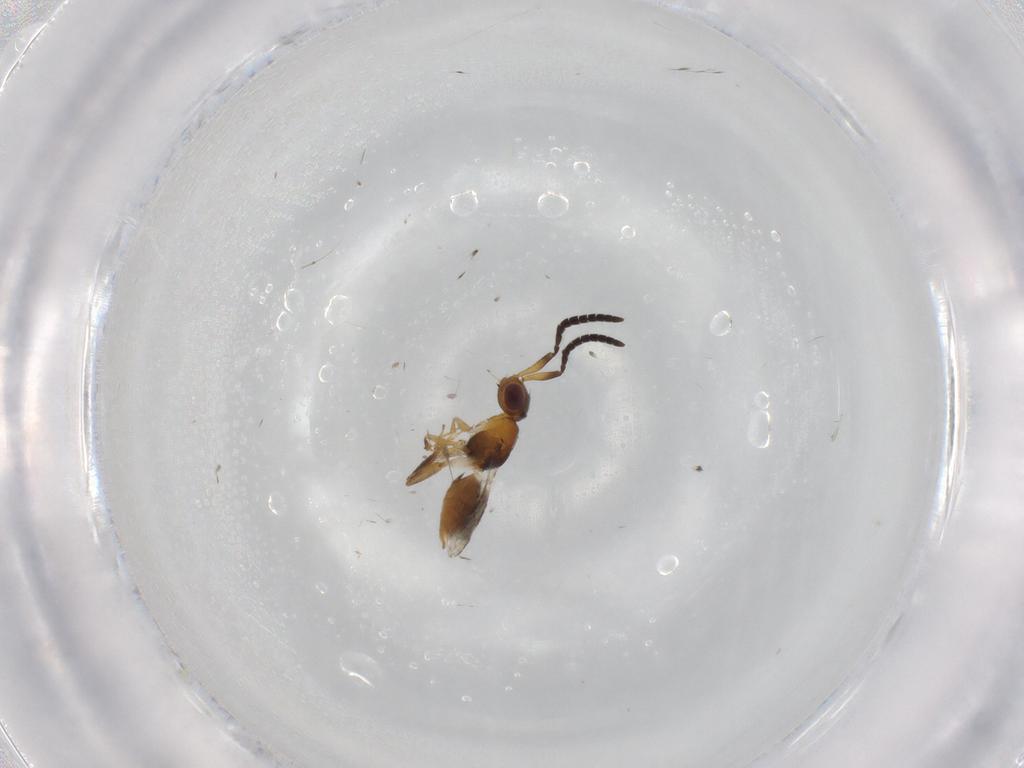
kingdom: Animalia
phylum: Arthropoda
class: Insecta
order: Hymenoptera
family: Megaspilidae
